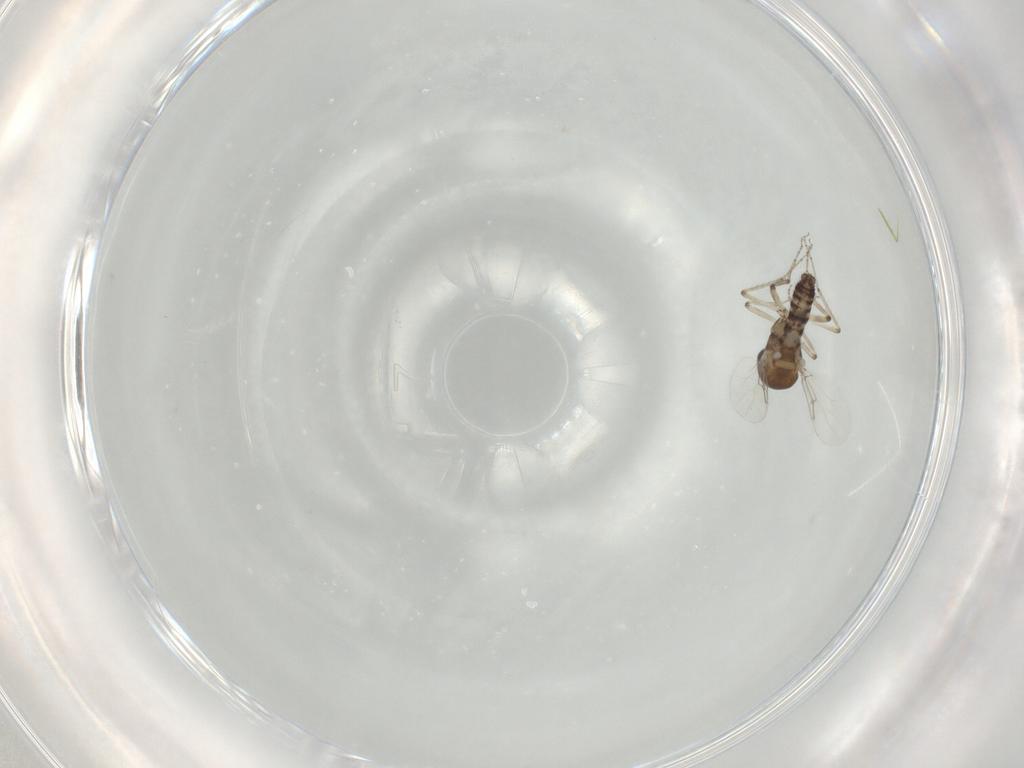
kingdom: Animalia
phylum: Arthropoda
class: Insecta
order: Diptera
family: Ceratopogonidae
